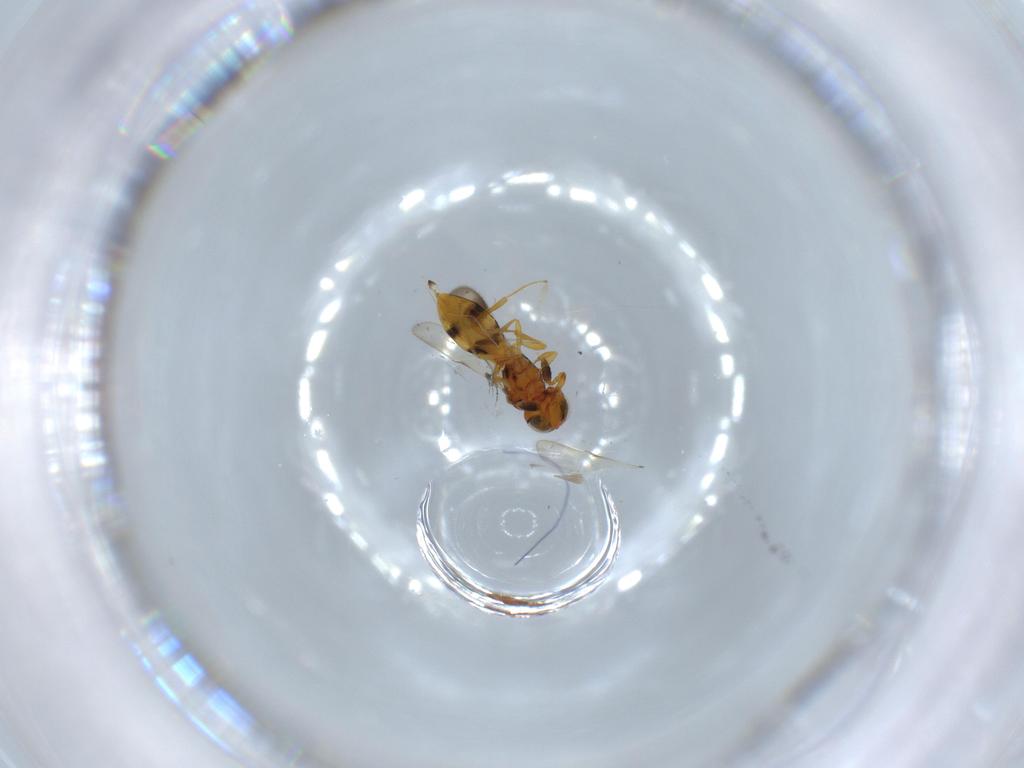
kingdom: Animalia
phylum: Arthropoda
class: Insecta
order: Hymenoptera
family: Scelionidae
